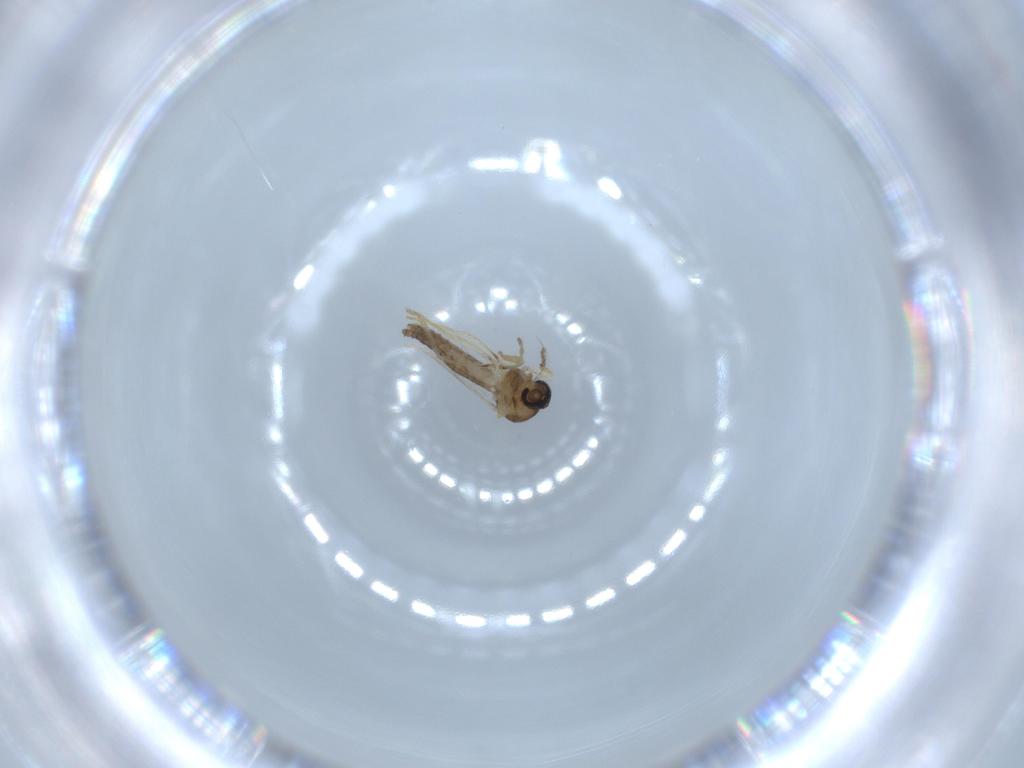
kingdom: Animalia
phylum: Arthropoda
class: Insecta
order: Diptera
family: Ceratopogonidae
